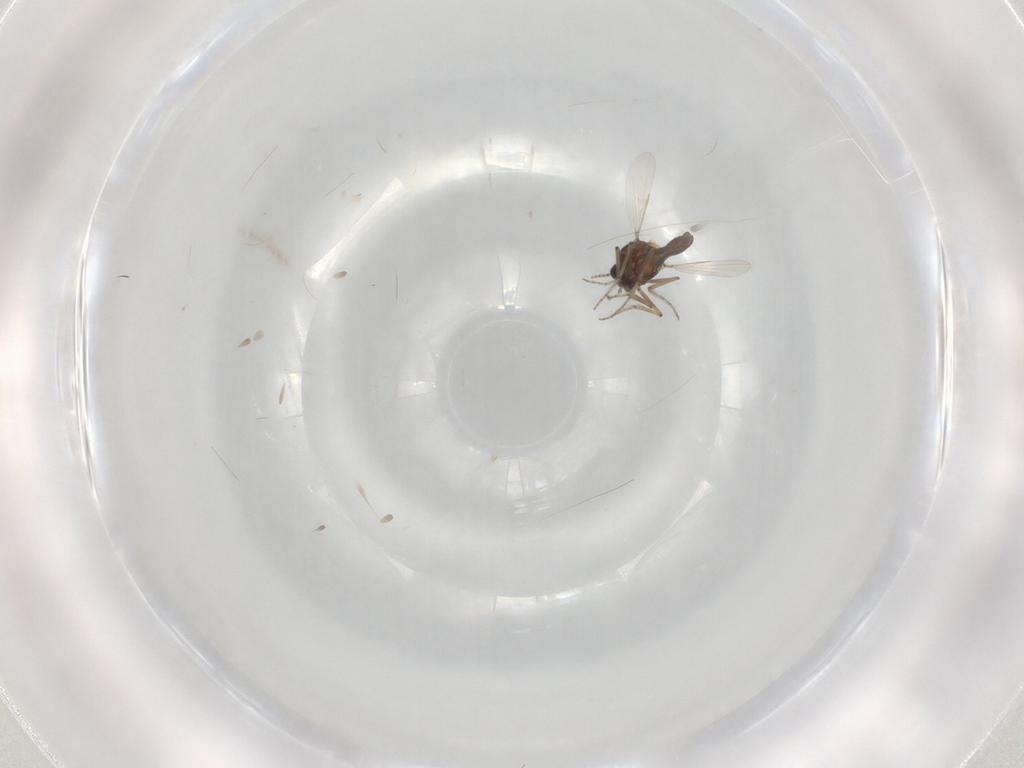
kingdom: Animalia
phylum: Arthropoda
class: Insecta
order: Diptera
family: Ceratopogonidae
